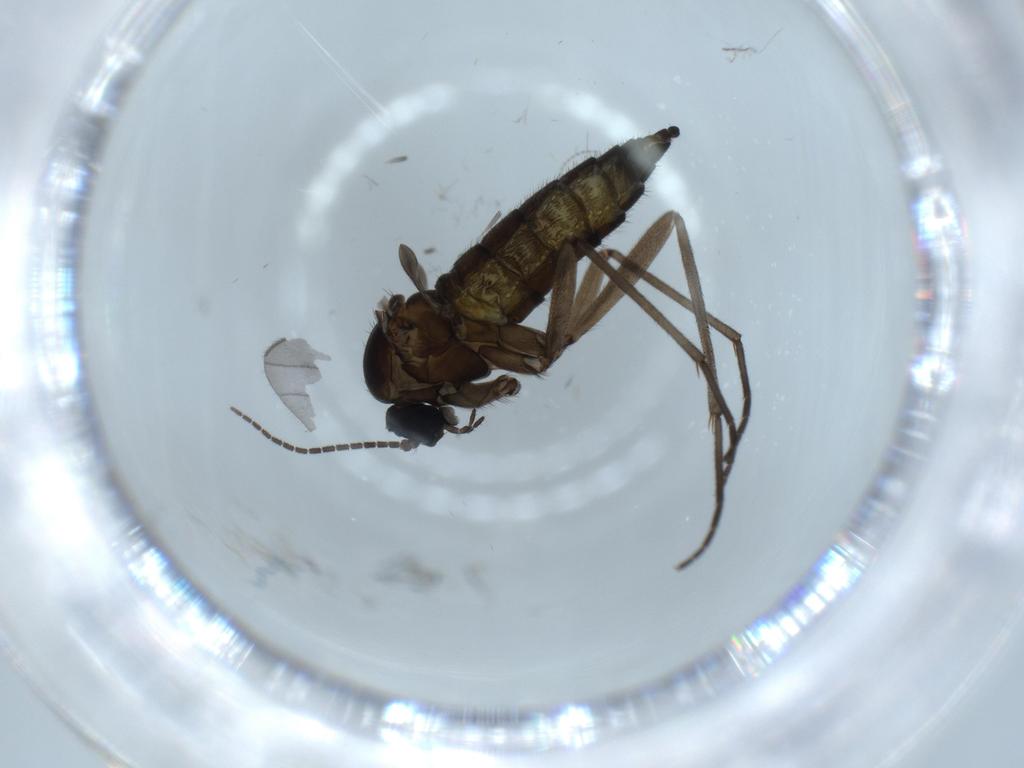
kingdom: Animalia
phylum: Arthropoda
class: Insecta
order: Diptera
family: Sciaridae
